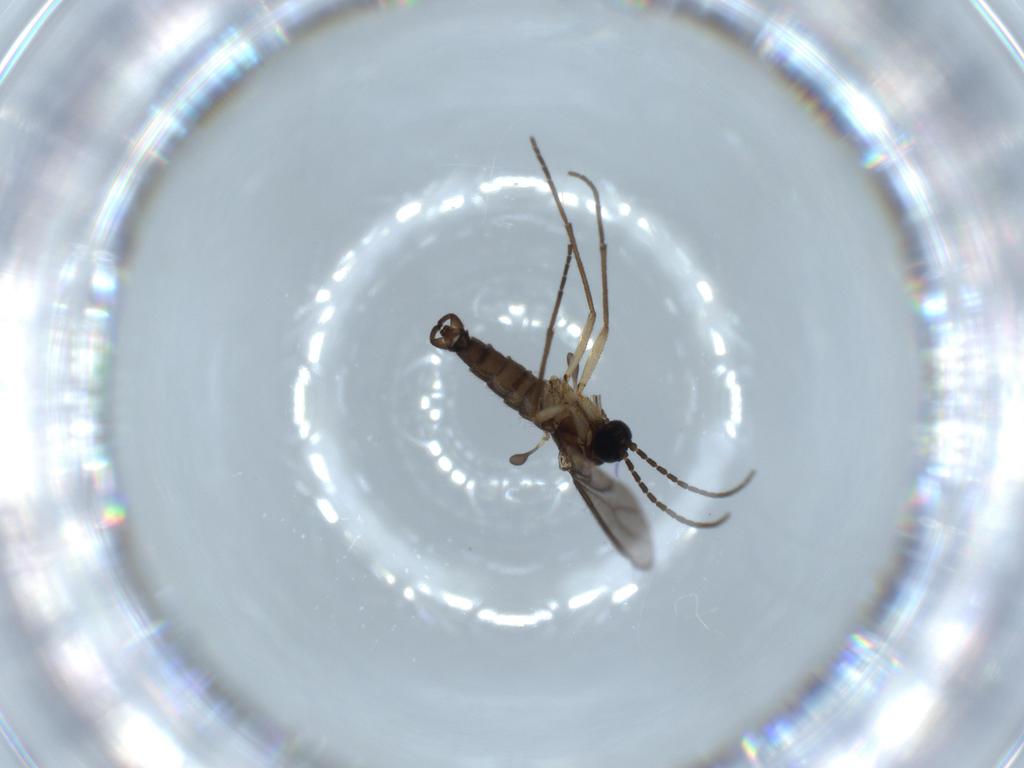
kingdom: Animalia
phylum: Arthropoda
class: Insecta
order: Diptera
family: Sciaridae
